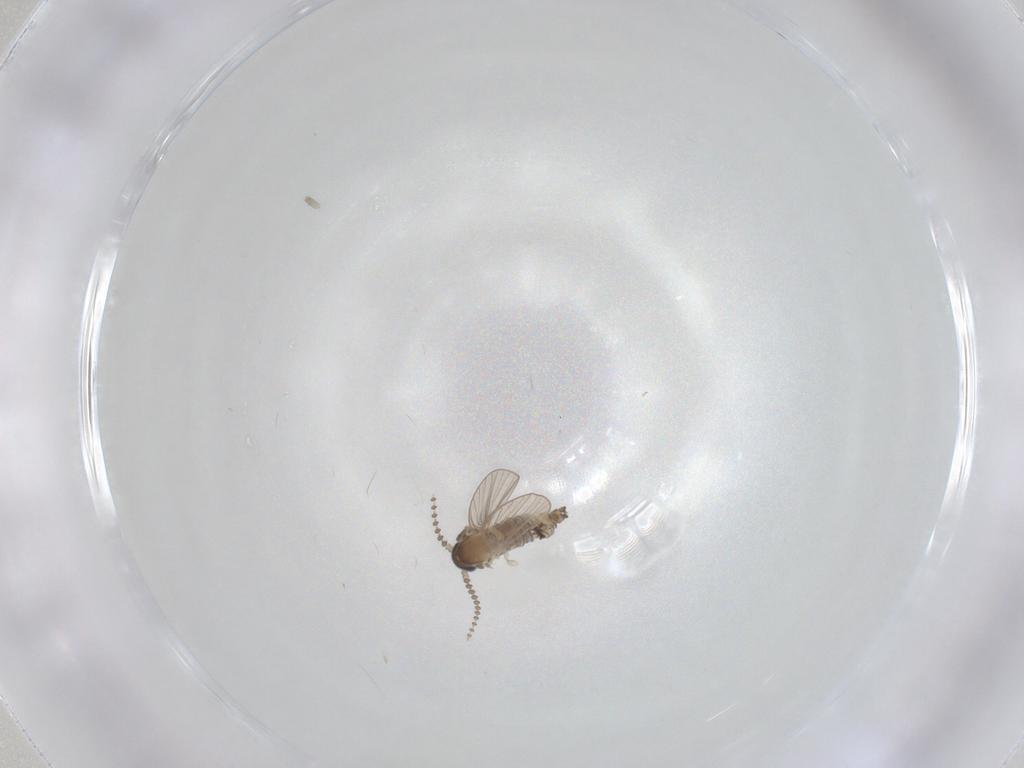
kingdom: Animalia
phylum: Arthropoda
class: Insecta
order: Diptera
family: Psychodidae
